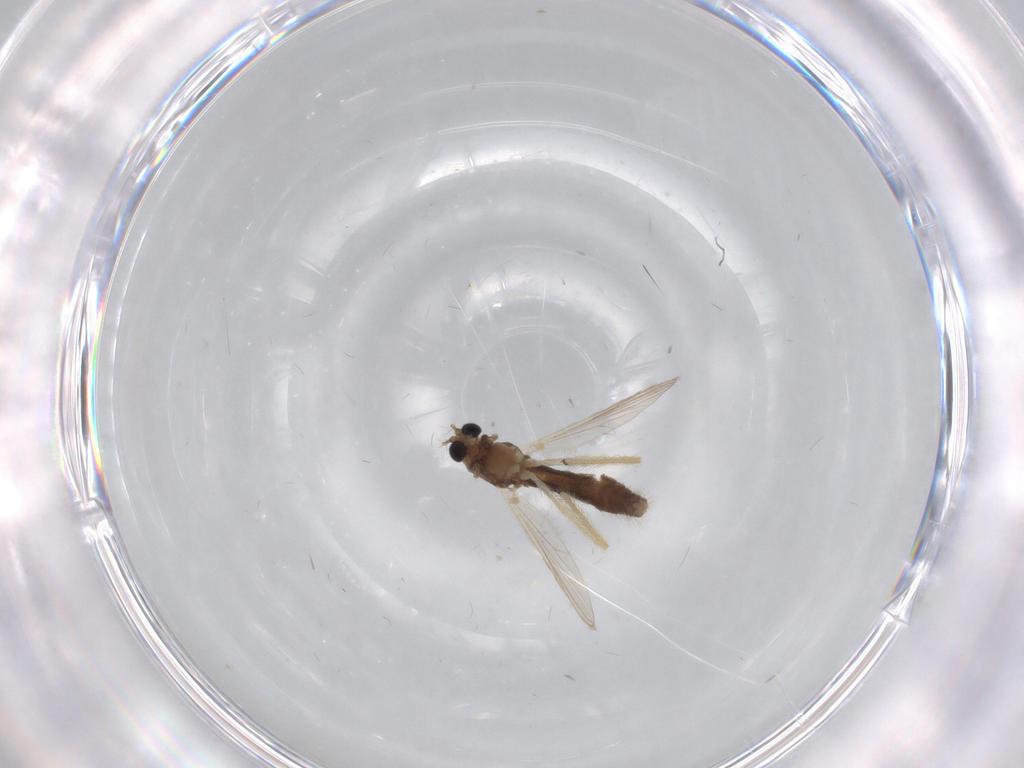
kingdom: Animalia
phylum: Arthropoda
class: Insecta
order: Diptera
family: Chironomidae
